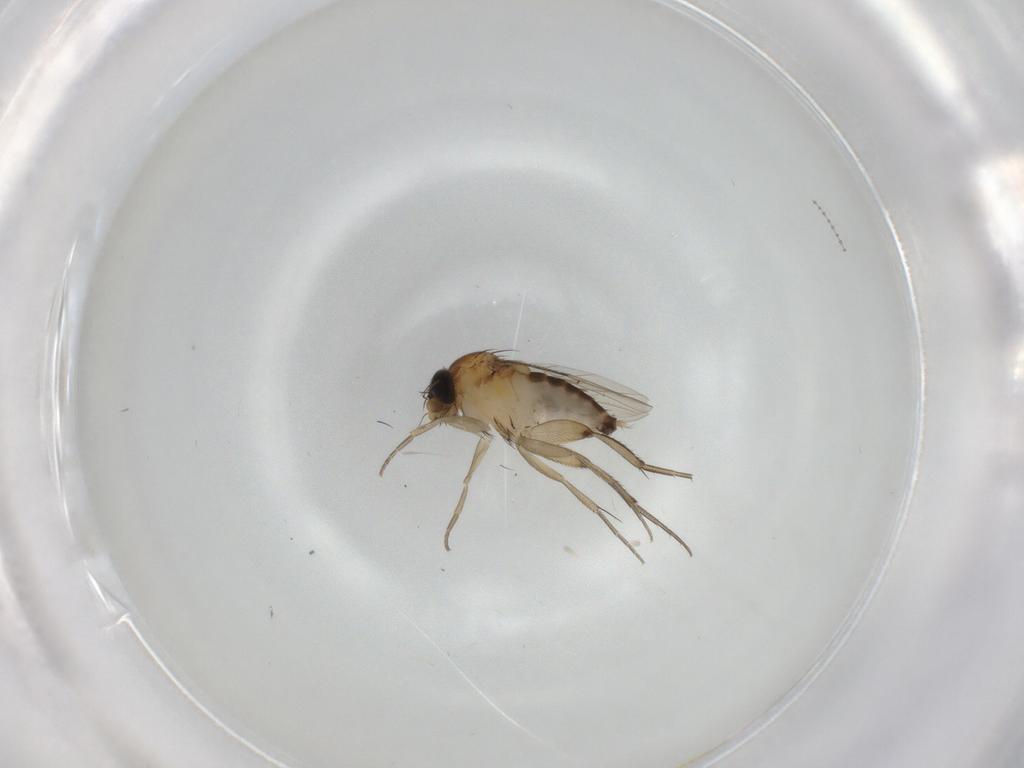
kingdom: Animalia
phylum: Arthropoda
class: Insecta
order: Diptera
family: Phoridae
